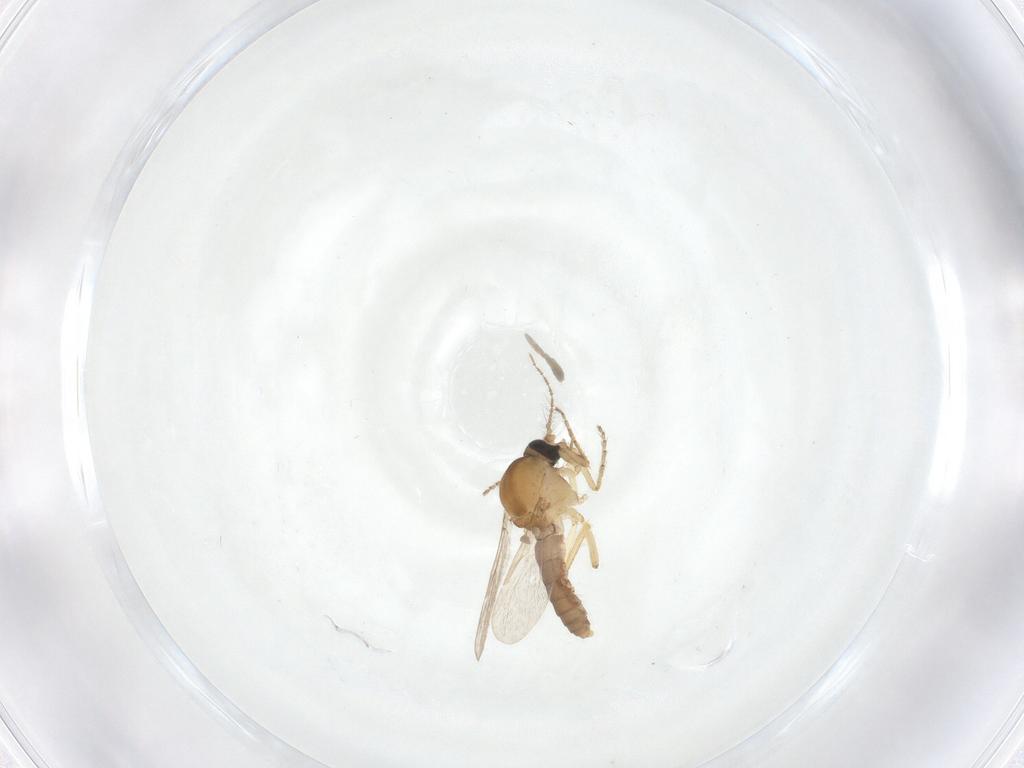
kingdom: Animalia
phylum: Arthropoda
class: Insecta
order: Diptera
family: Ceratopogonidae
